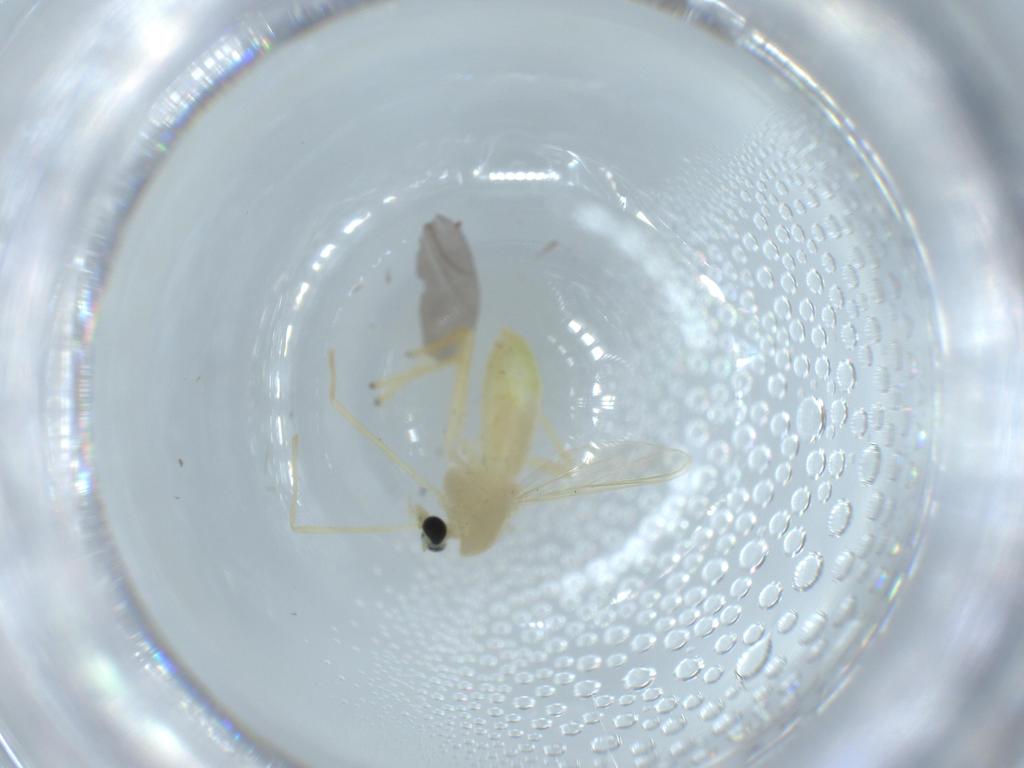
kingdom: Animalia
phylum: Arthropoda
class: Insecta
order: Diptera
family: Chironomidae
